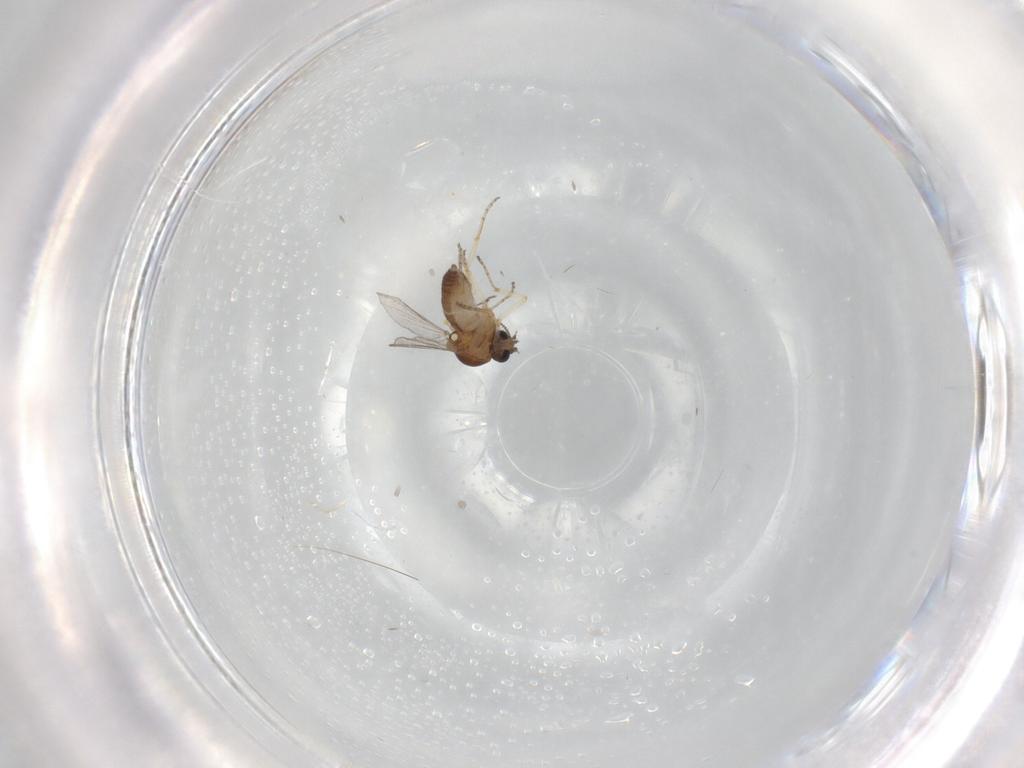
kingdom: Animalia
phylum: Arthropoda
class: Insecta
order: Diptera
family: Ceratopogonidae
